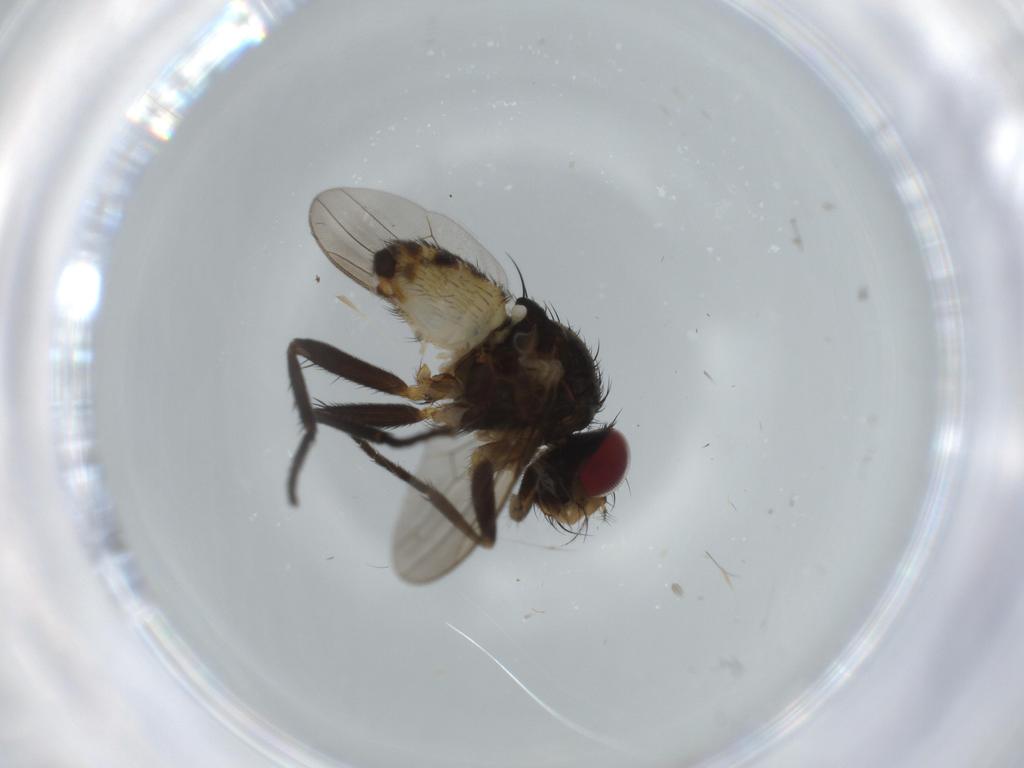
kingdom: Animalia
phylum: Arthropoda
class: Insecta
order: Diptera
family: Anthomyiidae
